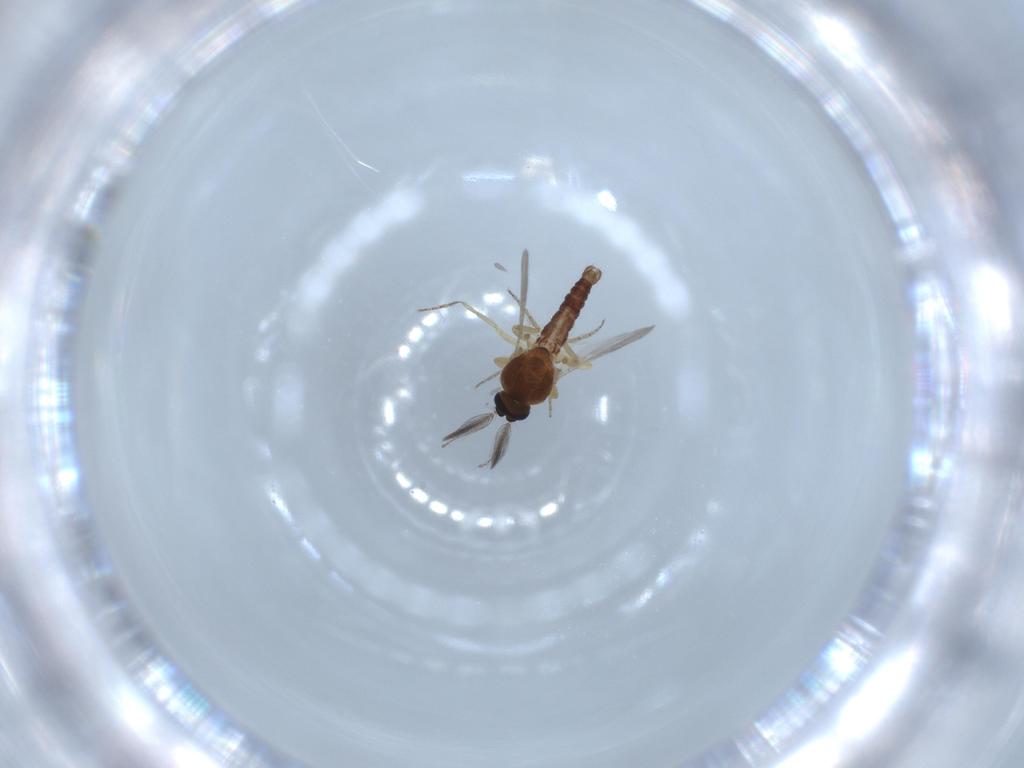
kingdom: Animalia
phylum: Arthropoda
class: Insecta
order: Diptera
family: Ceratopogonidae
